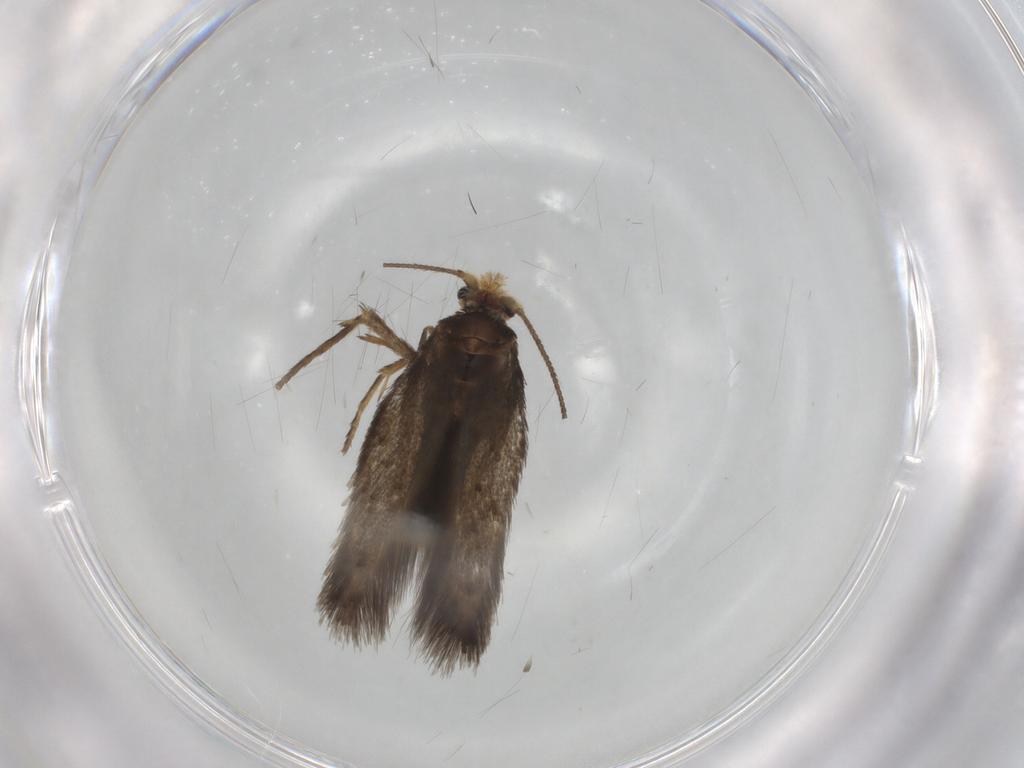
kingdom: Animalia
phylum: Arthropoda
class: Insecta
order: Lepidoptera
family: Nepticulidae
